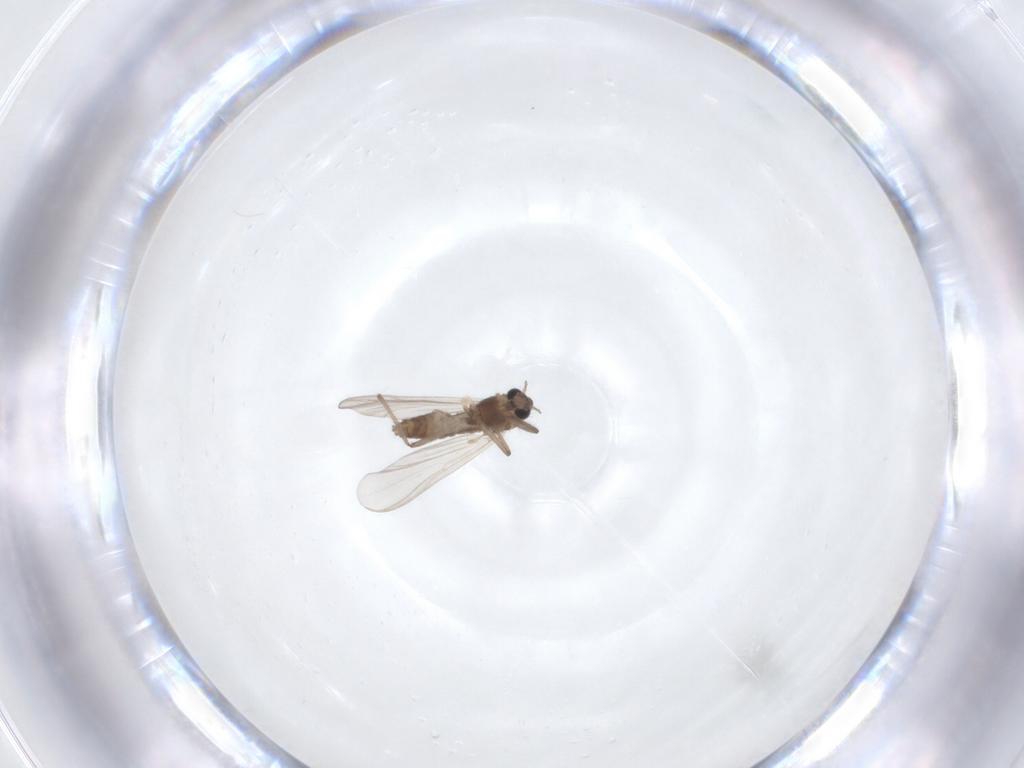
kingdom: Animalia
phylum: Arthropoda
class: Insecta
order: Diptera
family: Chironomidae
